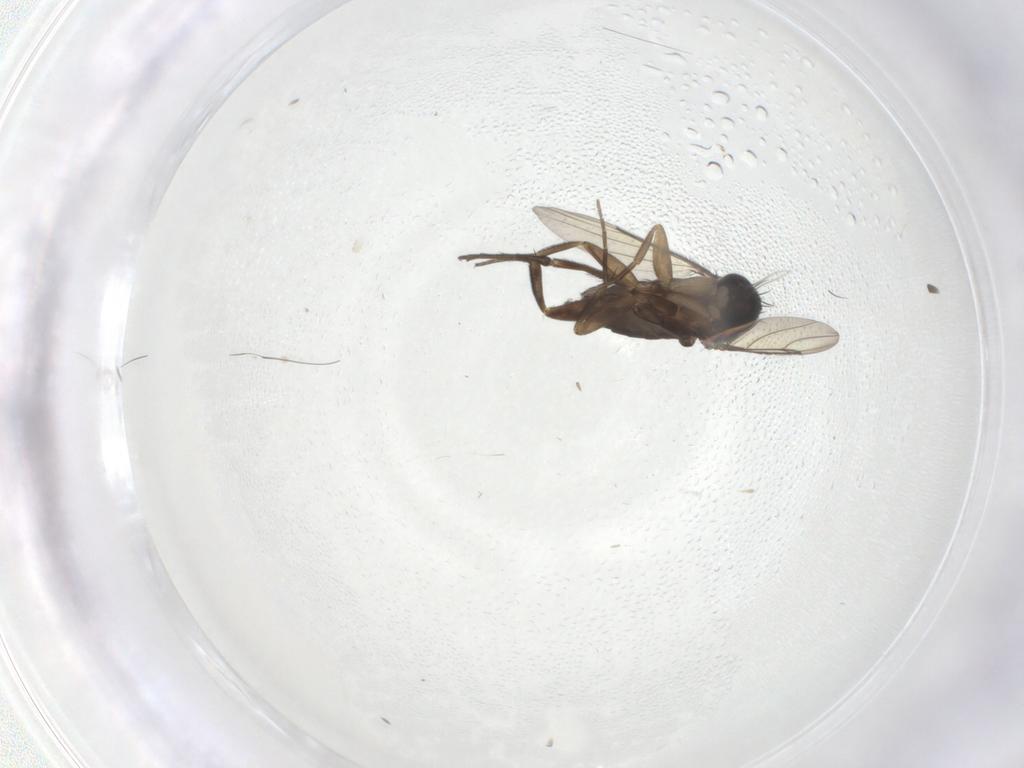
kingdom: Animalia
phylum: Arthropoda
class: Insecta
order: Diptera
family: Phoridae
